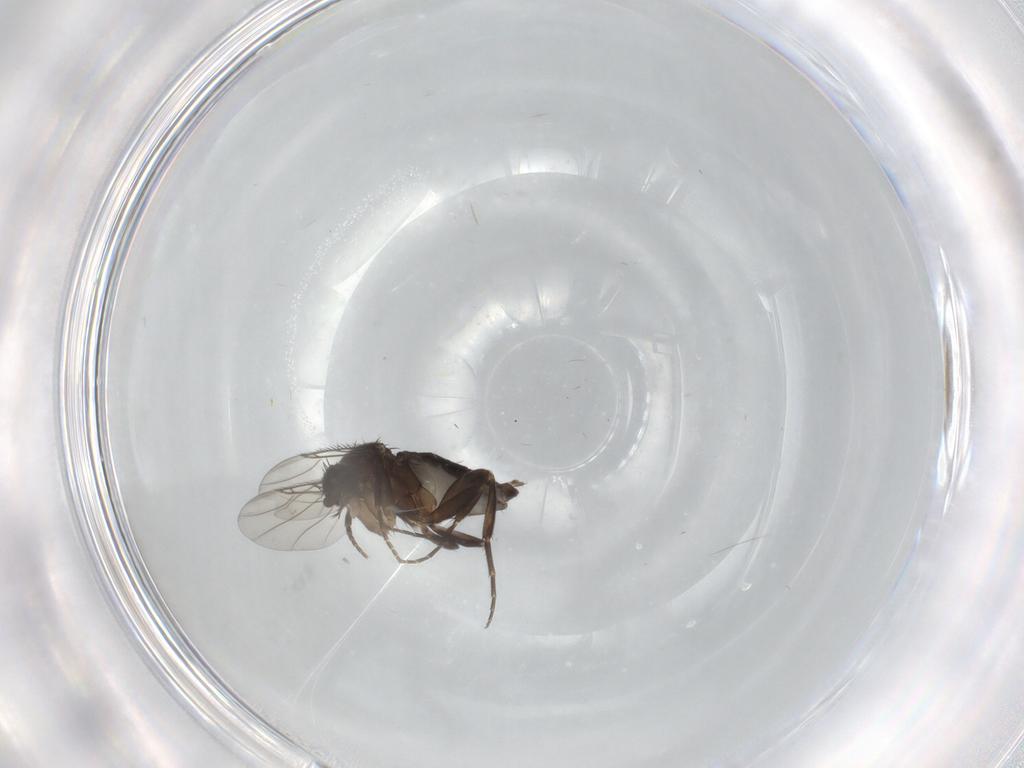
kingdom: Animalia
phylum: Arthropoda
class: Insecta
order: Diptera
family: Phoridae
